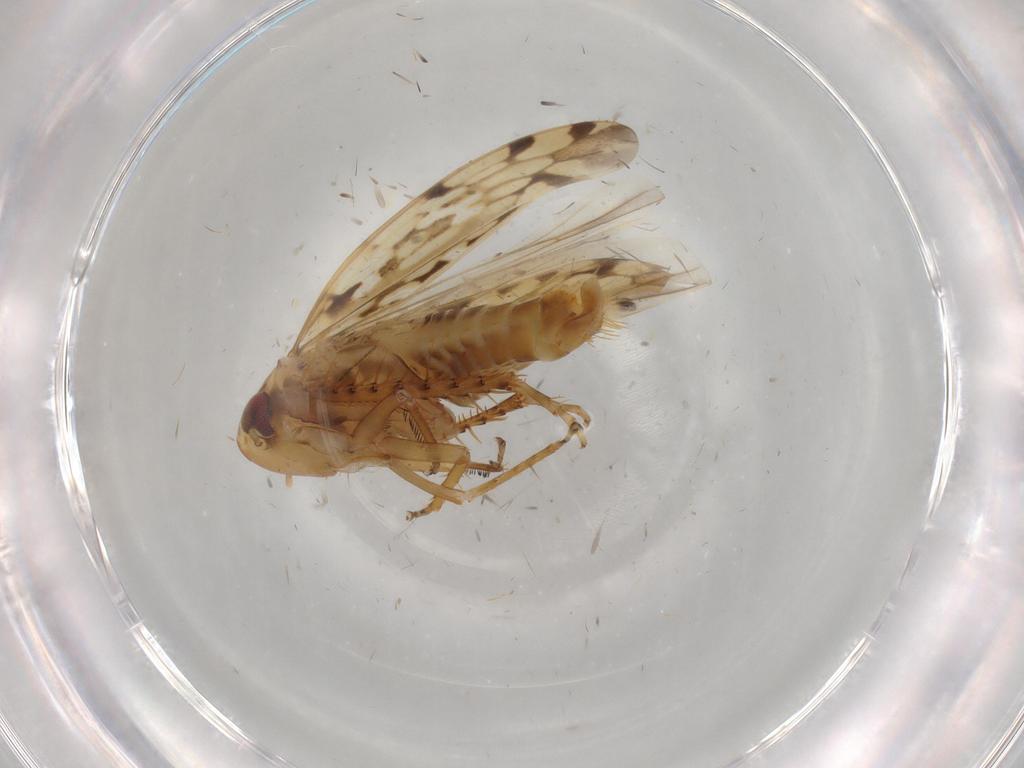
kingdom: Animalia
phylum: Arthropoda
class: Insecta
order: Hemiptera
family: Cicadellidae
